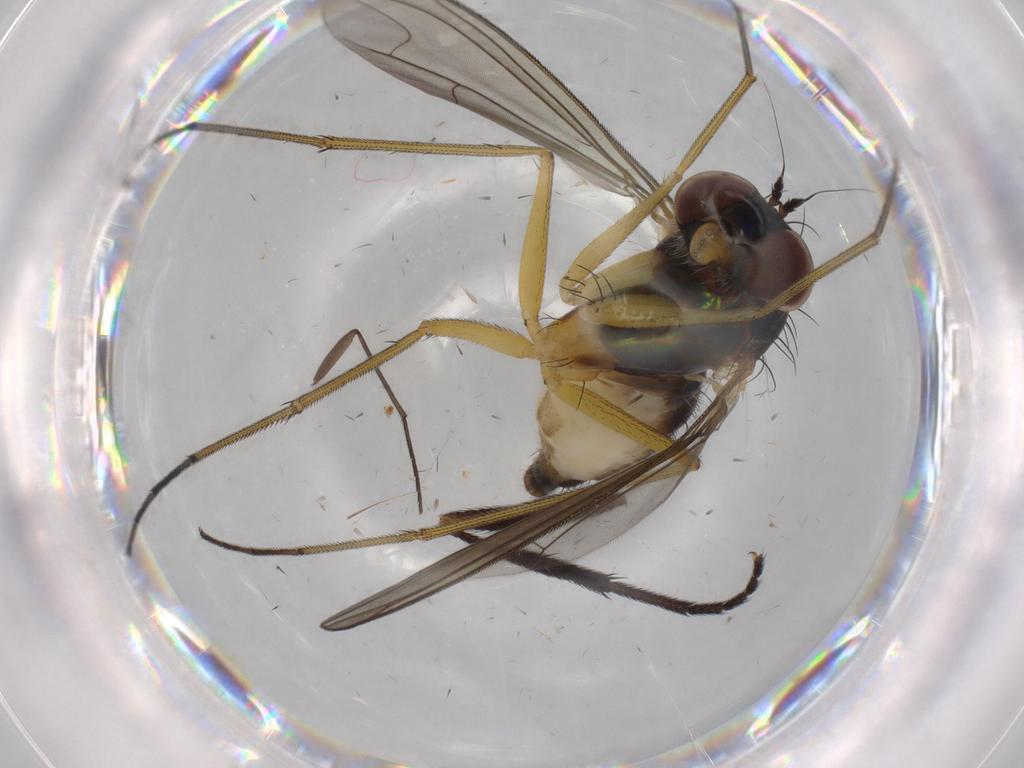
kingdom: Animalia
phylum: Arthropoda
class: Insecta
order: Diptera
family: Dolichopodidae
